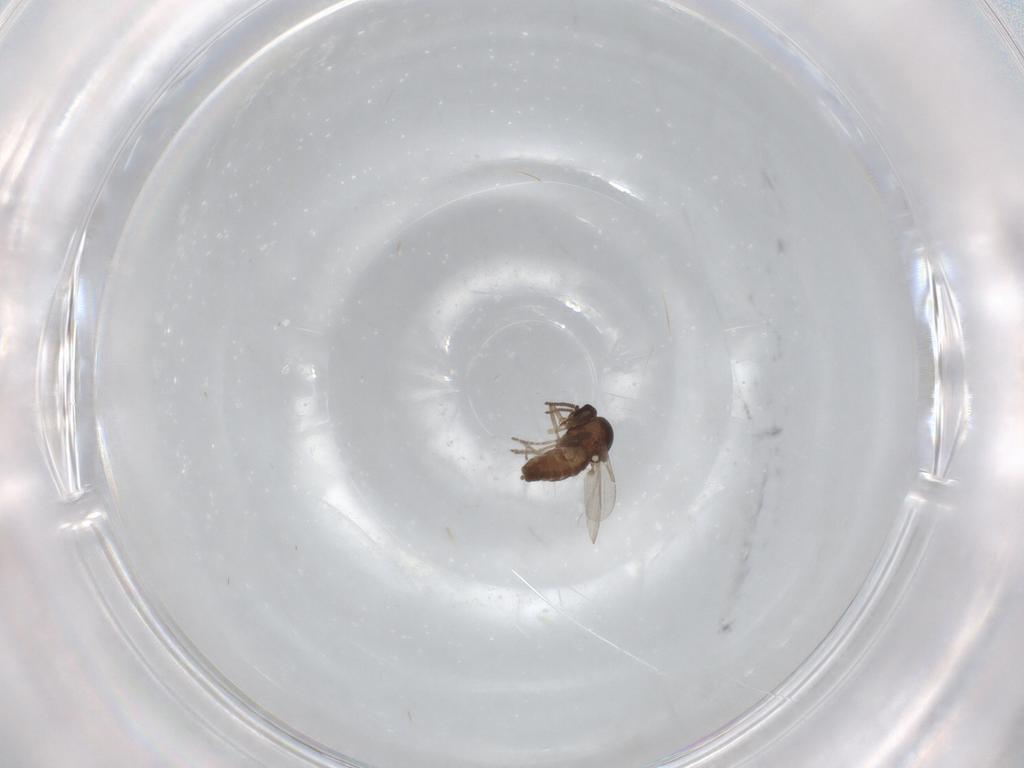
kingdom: Animalia
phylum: Arthropoda
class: Insecta
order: Diptera
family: Ceratopogonidae
